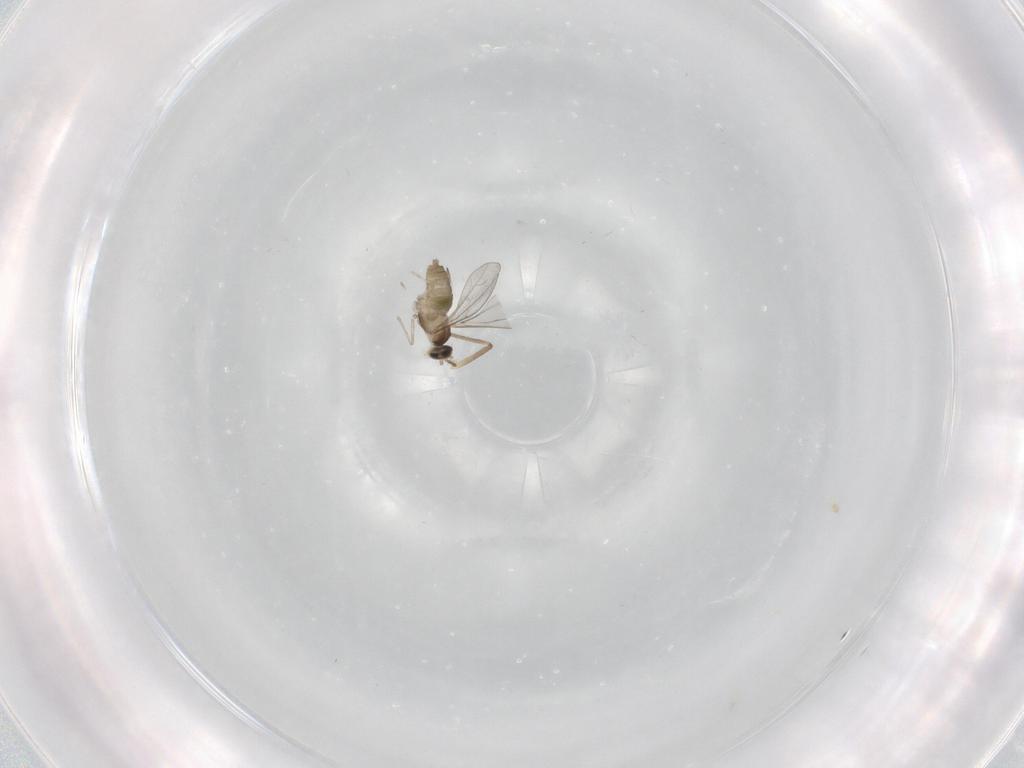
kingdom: Animalia
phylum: Arthropoda
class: Insecta
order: Diptera
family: Cecidomyiidae
